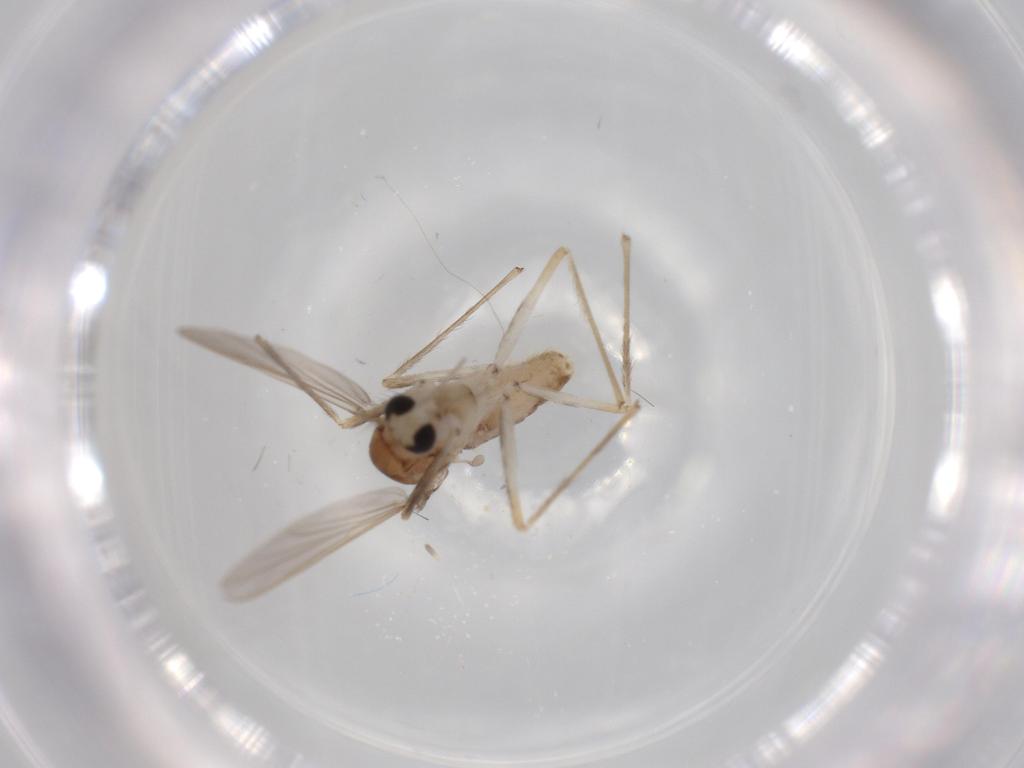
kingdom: Animalia
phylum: Arthropoda
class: Insecta
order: Diptera
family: Chironomidae
